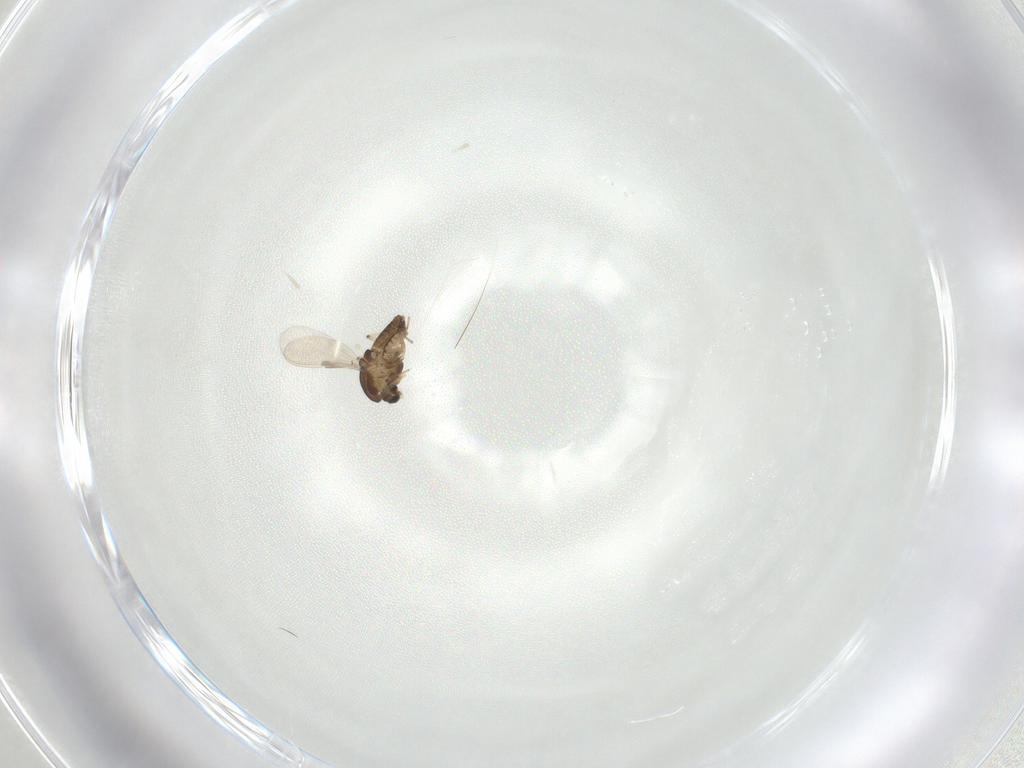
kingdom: Animalia
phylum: Arthropoda
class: Insecta
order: Diptera
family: Chironomidae
